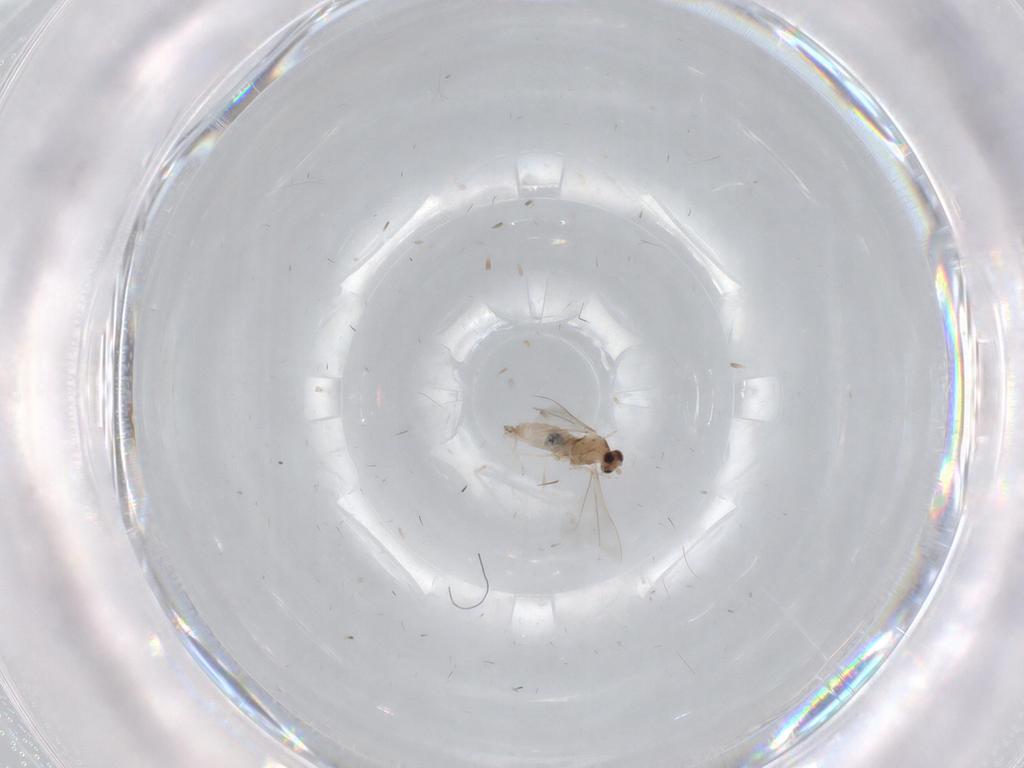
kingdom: Animalia
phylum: Arthropoda
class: Insecta
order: Diptera
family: Cecidomyiidae
